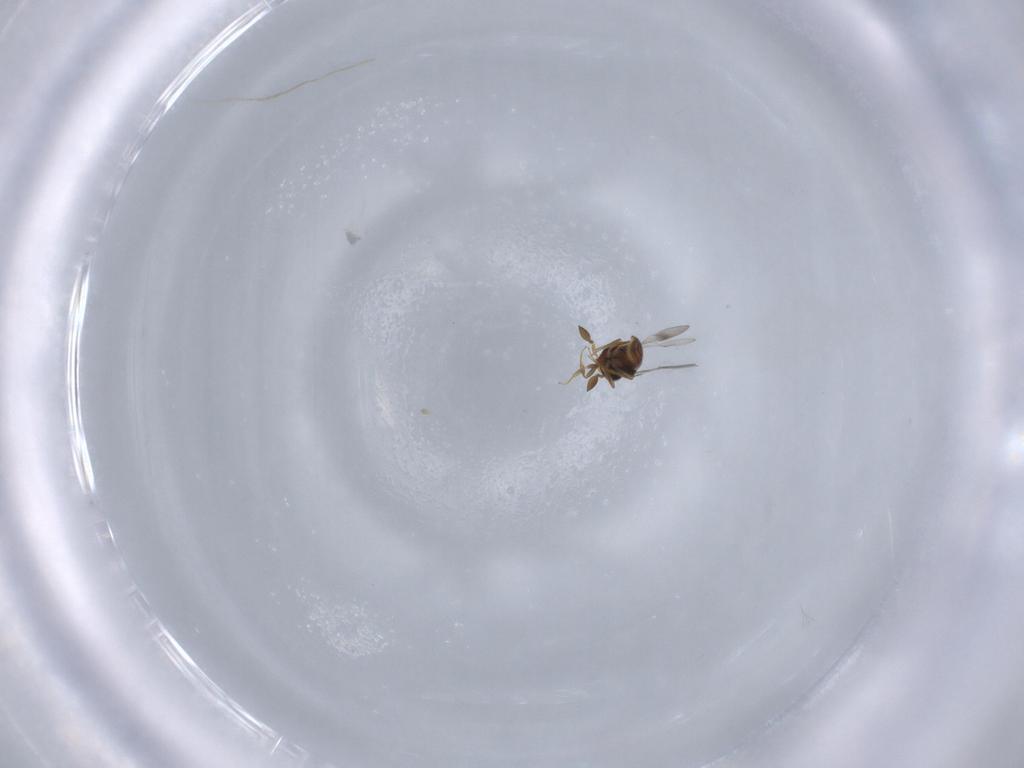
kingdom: Animalia
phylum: Arthropoda
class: Insecta
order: Hymenoptera
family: Scelionidae
